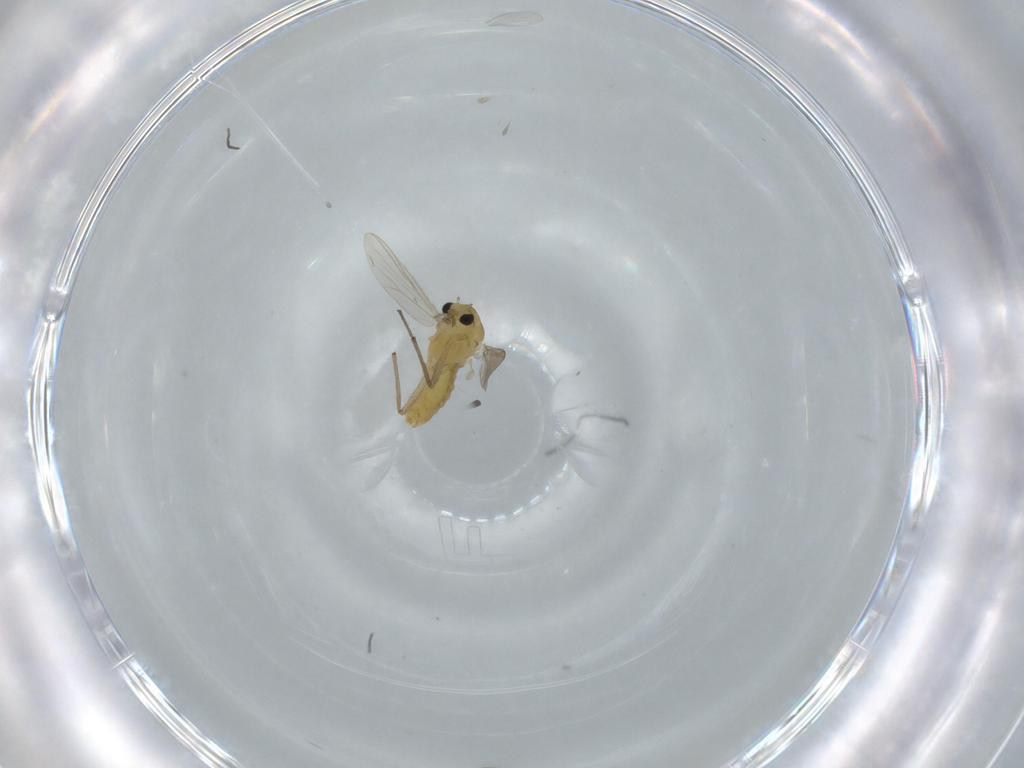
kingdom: Animalia
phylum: Arthropoda
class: Insecta
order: Diptera
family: Chironomidae
